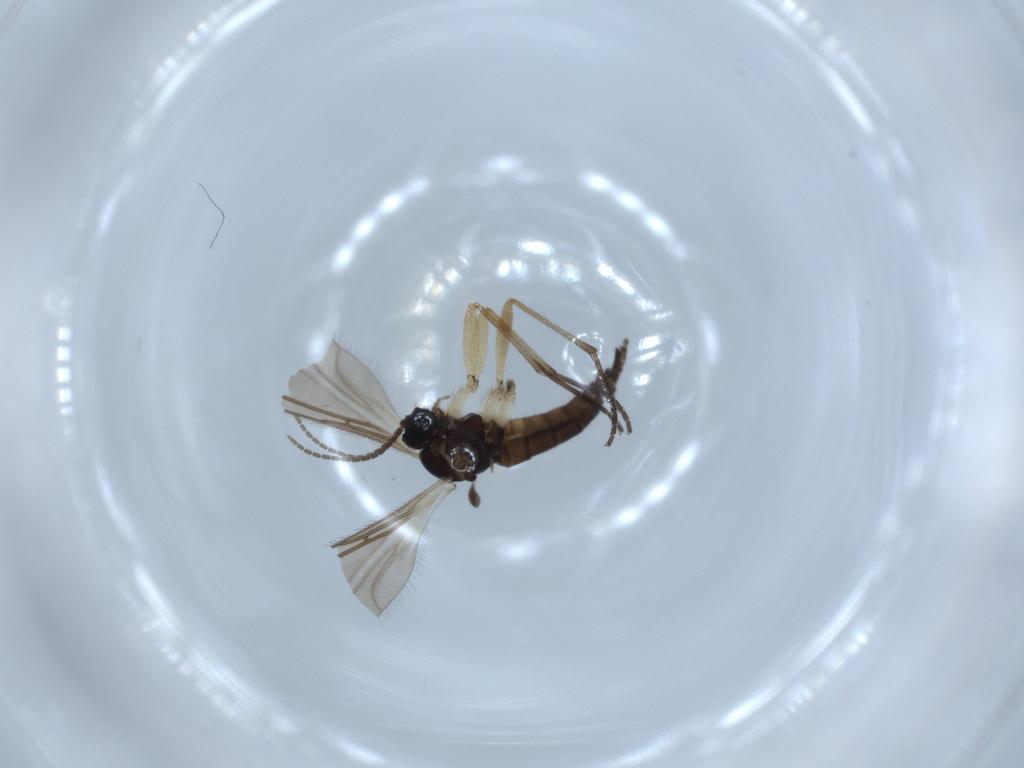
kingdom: Animalia
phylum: Arthropoda
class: Insecta
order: Diptera
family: Sciaridae
